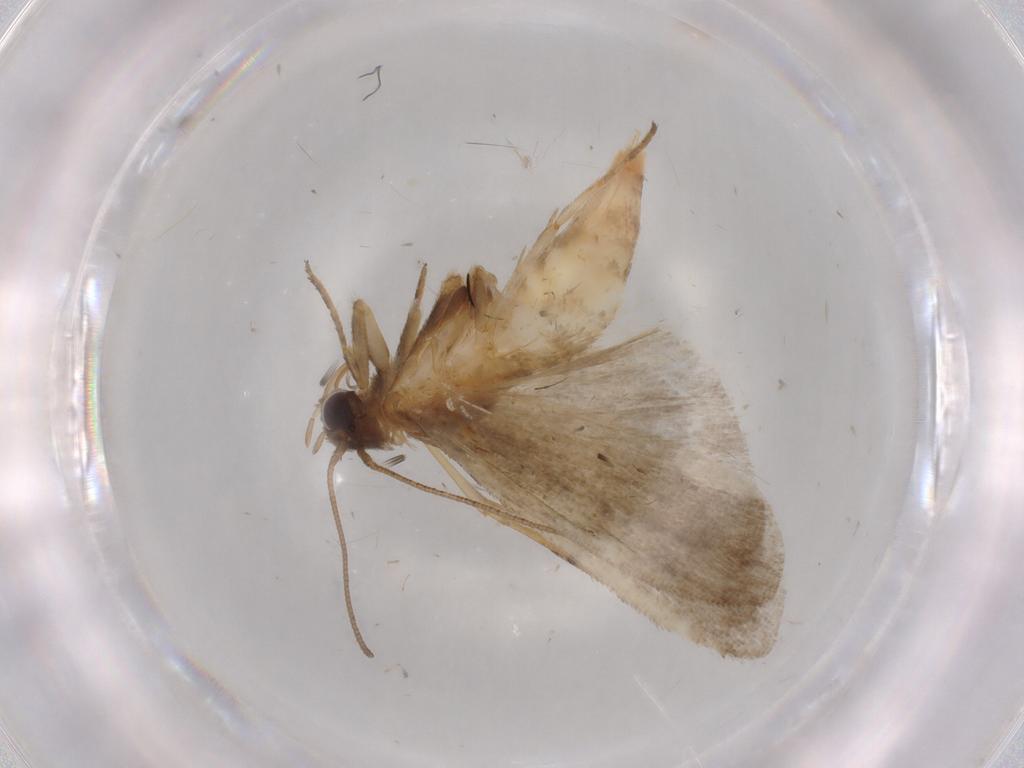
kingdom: Animalia
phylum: Arthropoda
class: Insecta
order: Lepidoptera
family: Noctuidae
